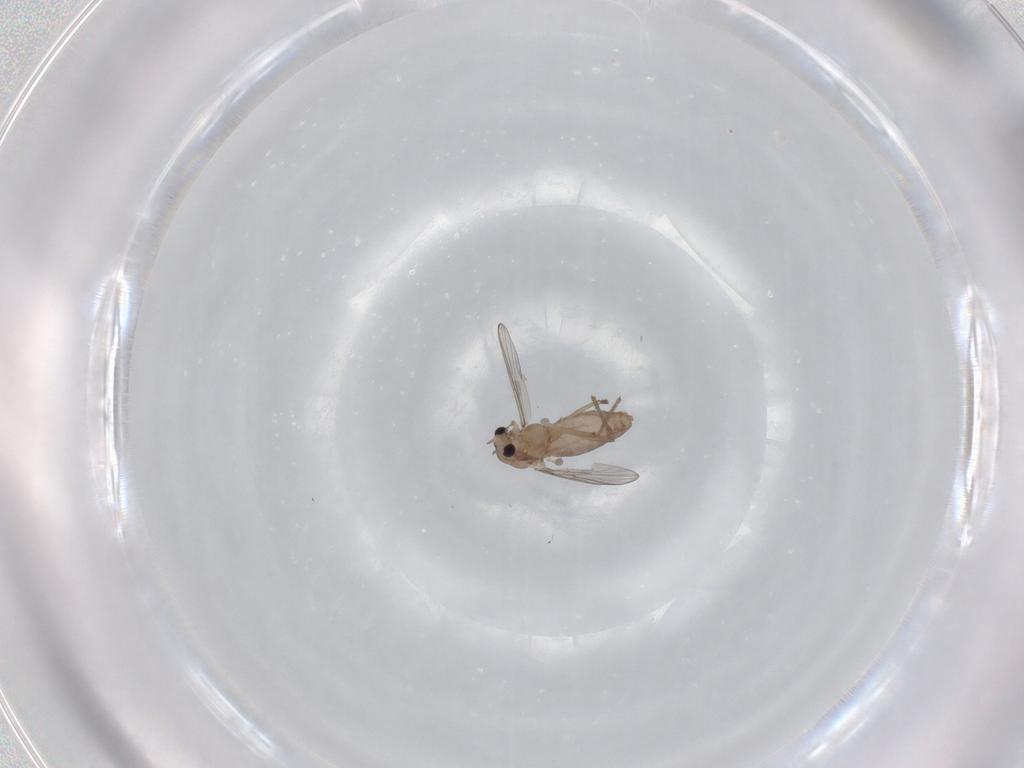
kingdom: Animalia
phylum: Arthropoda
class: Insecta
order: Diptera
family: Chironomidae
